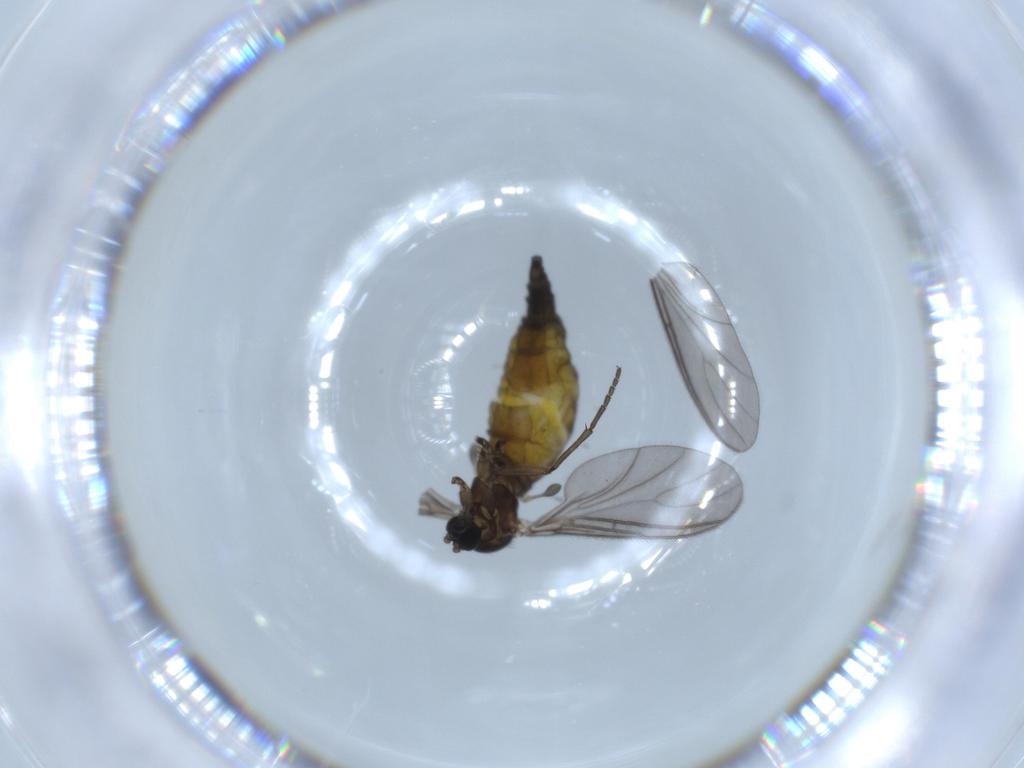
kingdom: Animalia
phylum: Arthropoda
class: Insecta
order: Diptera
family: Sciaridae
